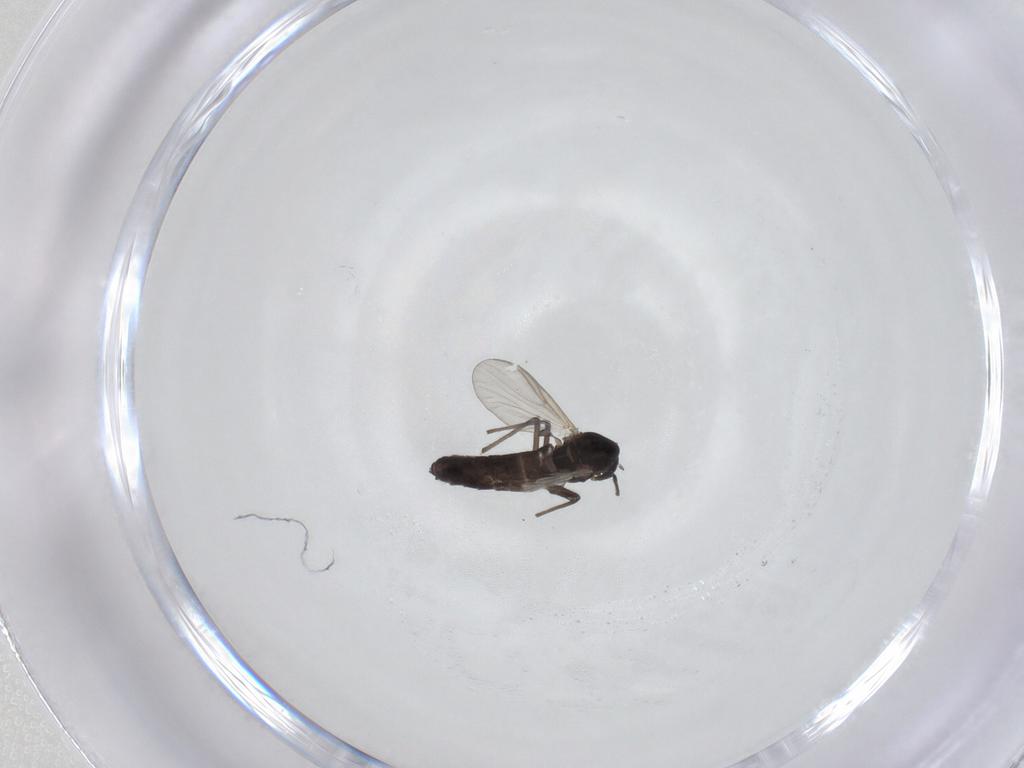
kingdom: Animalia
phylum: Arthropoda
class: Insecta
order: Diptera
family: Chironomidae
